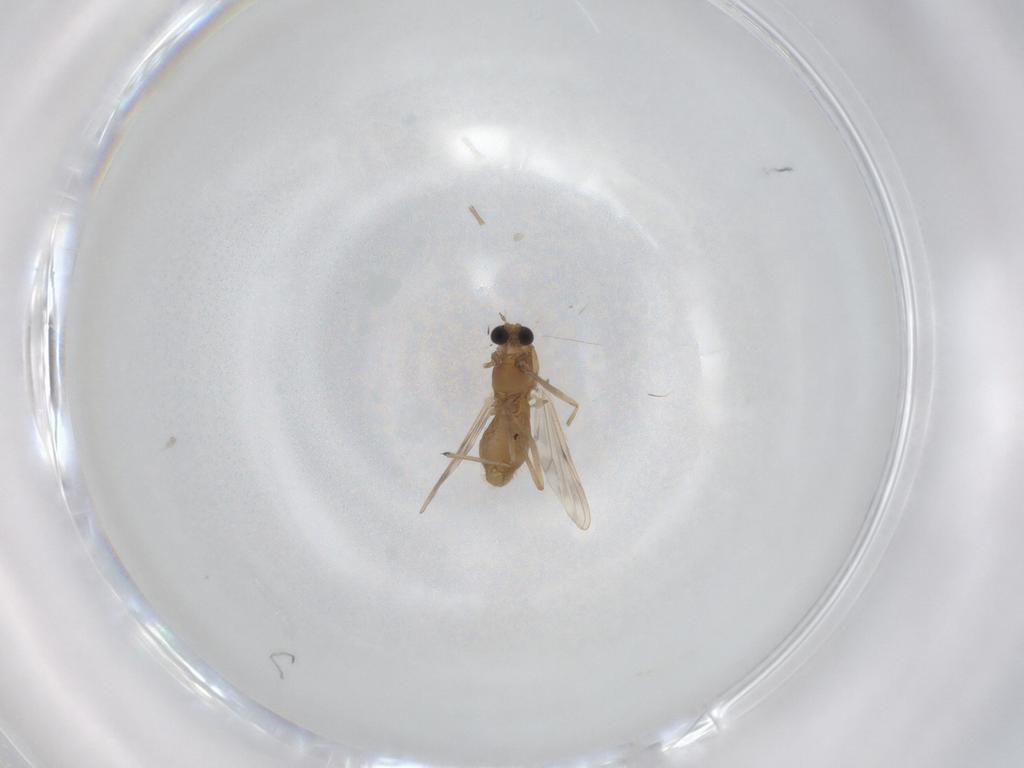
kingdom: Animalia
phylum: Arthropoda
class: Insecta
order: Diptera
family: Chironomidae
